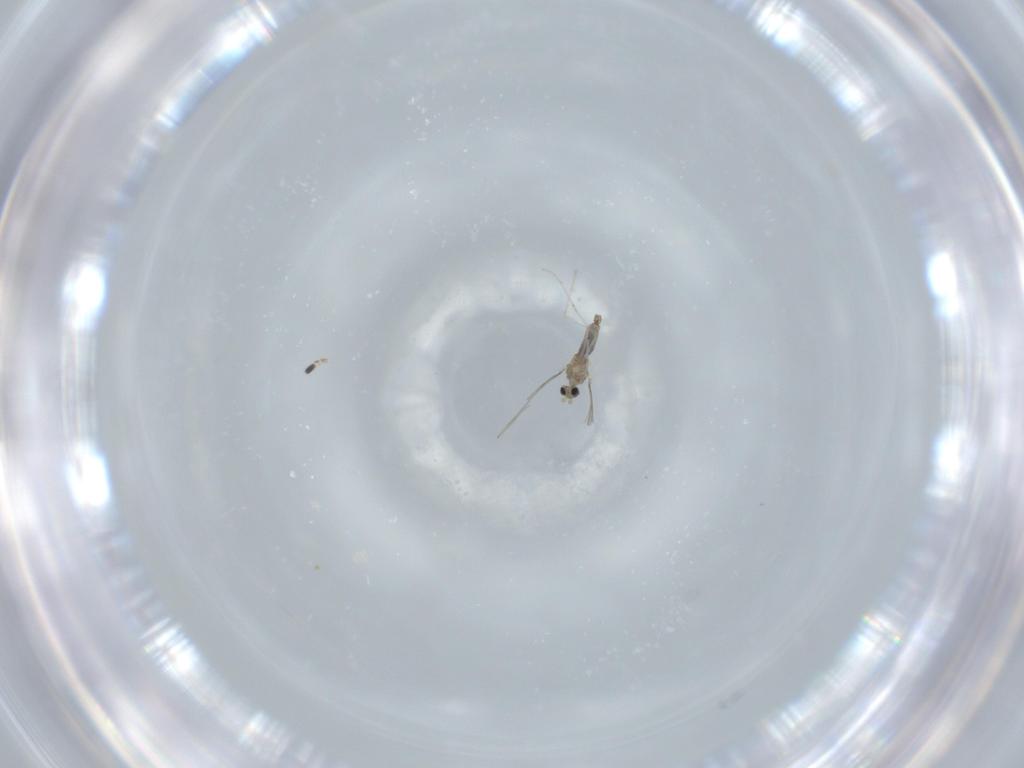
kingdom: Animalia
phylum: Arthropoda
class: Insecta
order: Diptera
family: Cecidomyiidae
